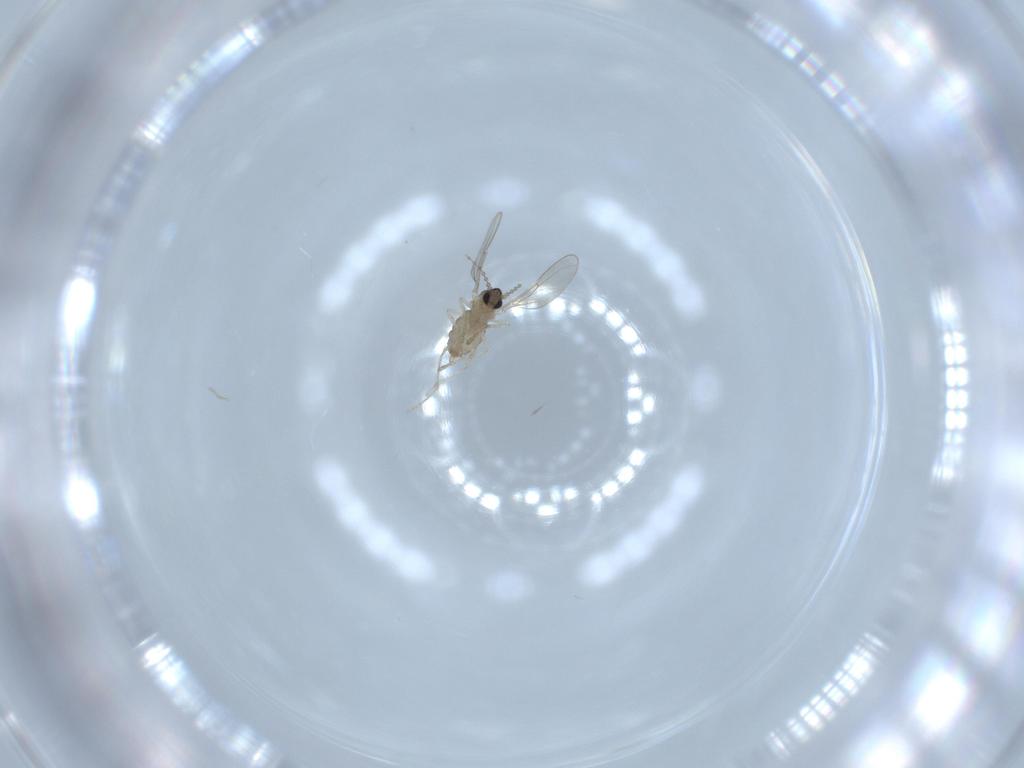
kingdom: Animalia
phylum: Arthropoda
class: Insecta
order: Diptera
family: Cecidomyiidae
